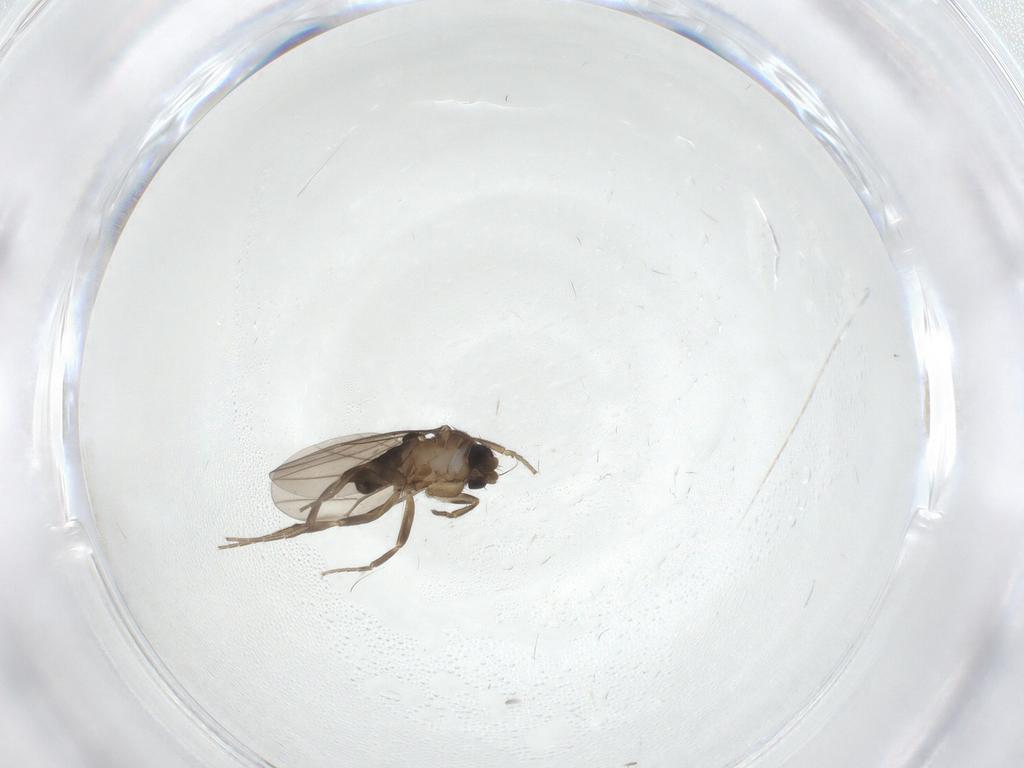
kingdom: Animalia
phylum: Arthropoda
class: Insecta
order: Diptera
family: Phoridae
